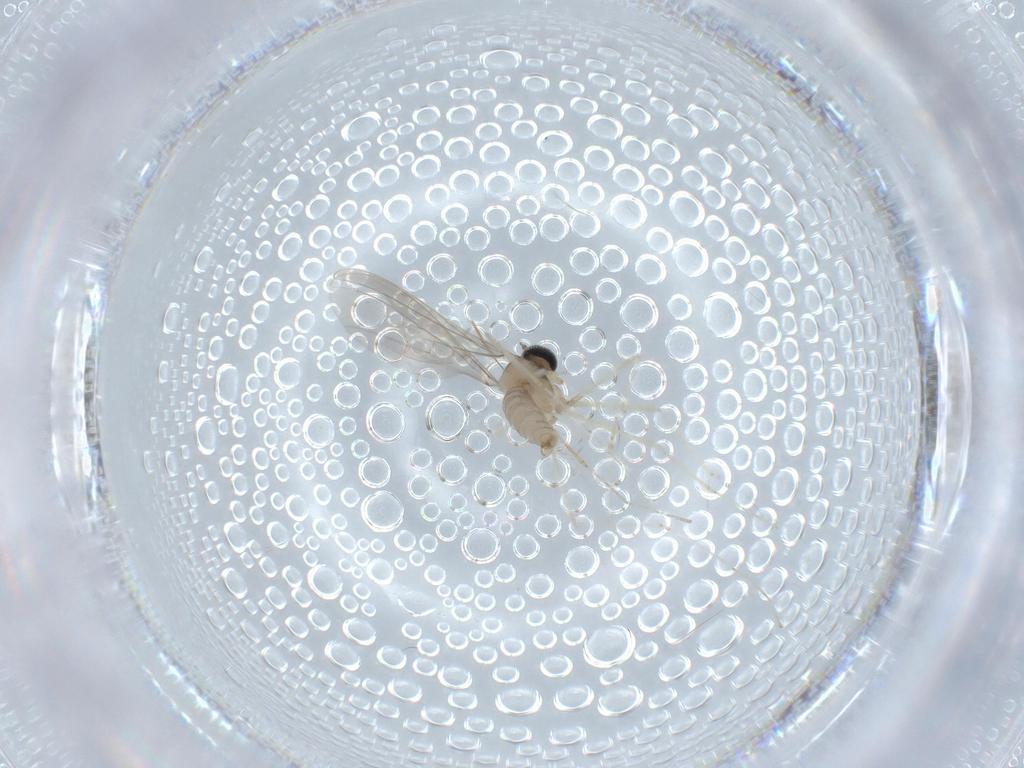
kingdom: Animalia
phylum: Arthropoda
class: Insecta
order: Diptera
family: Cecidomyiidae
